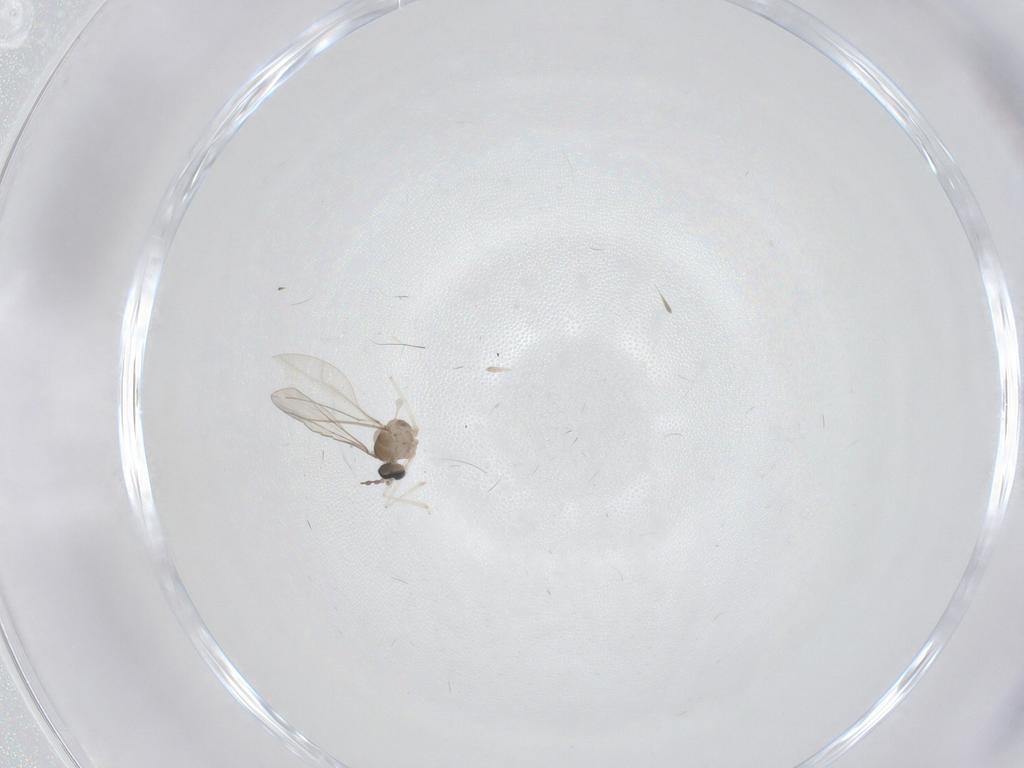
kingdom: Animalia
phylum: Arthropoda
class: Insecta
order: Diptera
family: Cecidomyiidae
